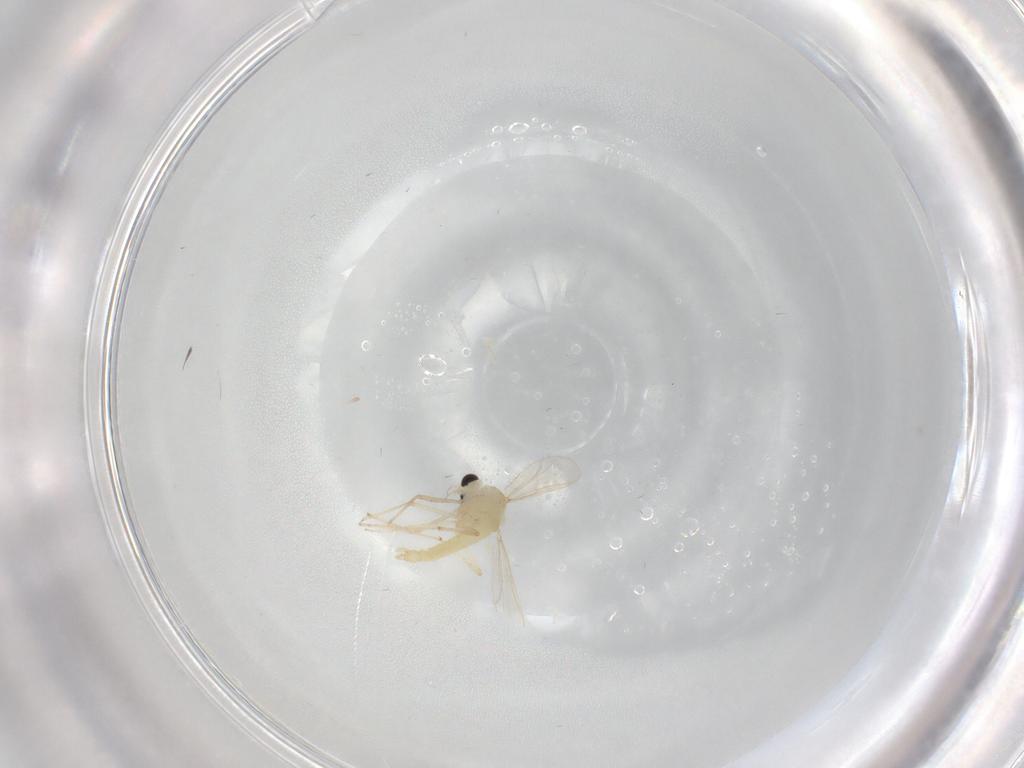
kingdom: Animalia
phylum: Arthropoda
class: Insecta
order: Diptera
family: Chironomidae
